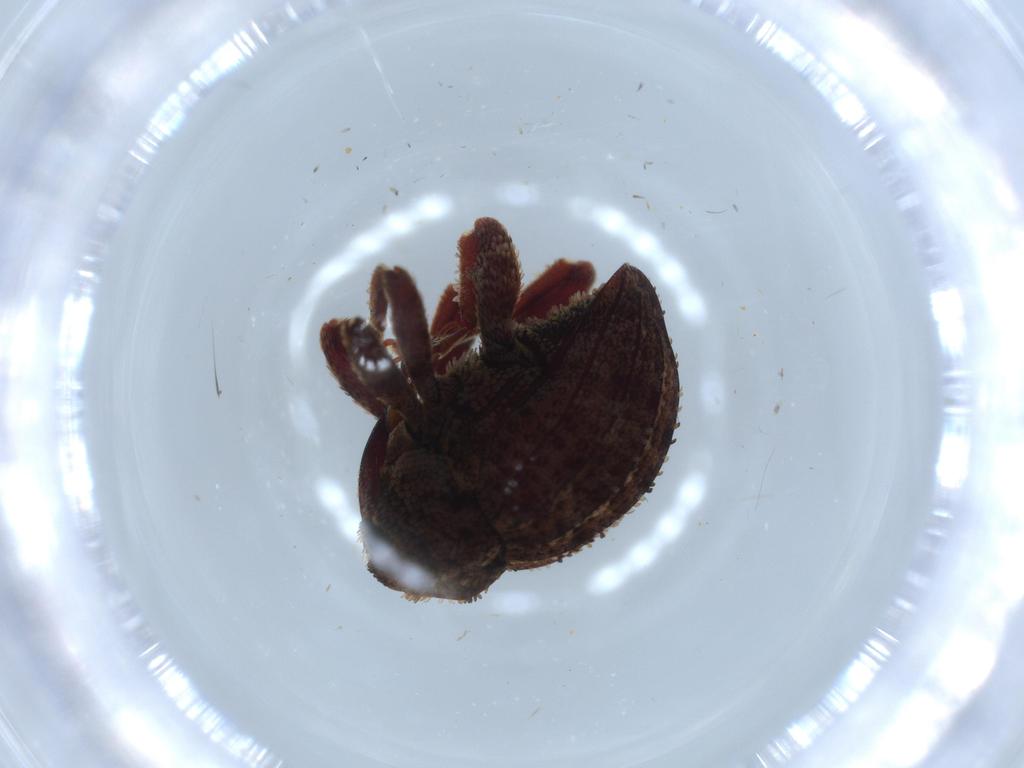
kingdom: Animalia
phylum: Arthropoda
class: Insecta
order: Coleoptera
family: Curculionidae
